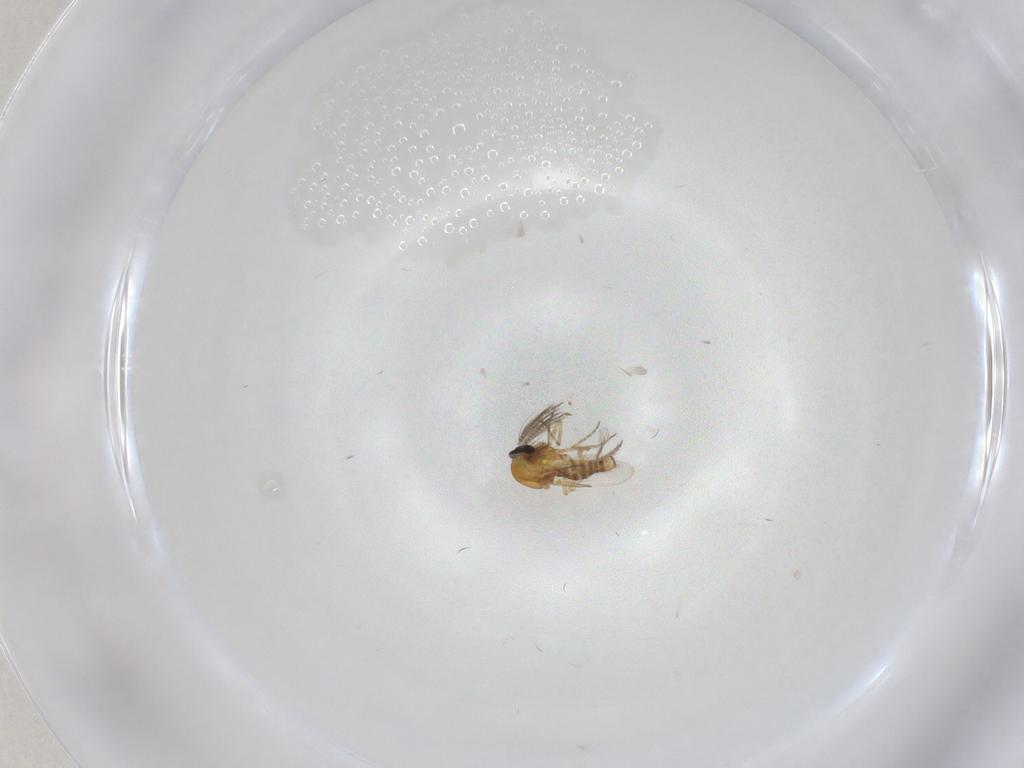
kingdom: Animalia
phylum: Arthropoda
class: Insecta
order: Diptera
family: Ceratopogonidae
